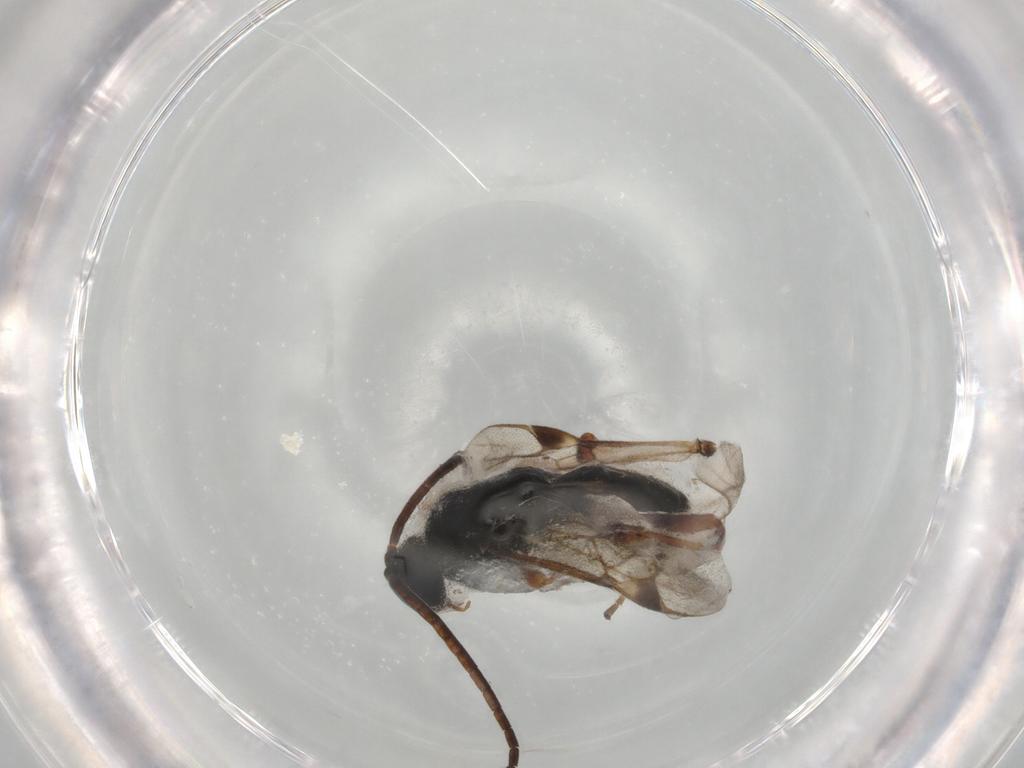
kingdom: Animalia
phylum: Arthropoda
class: Insecta
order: Hymenoptera
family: Braconidae
